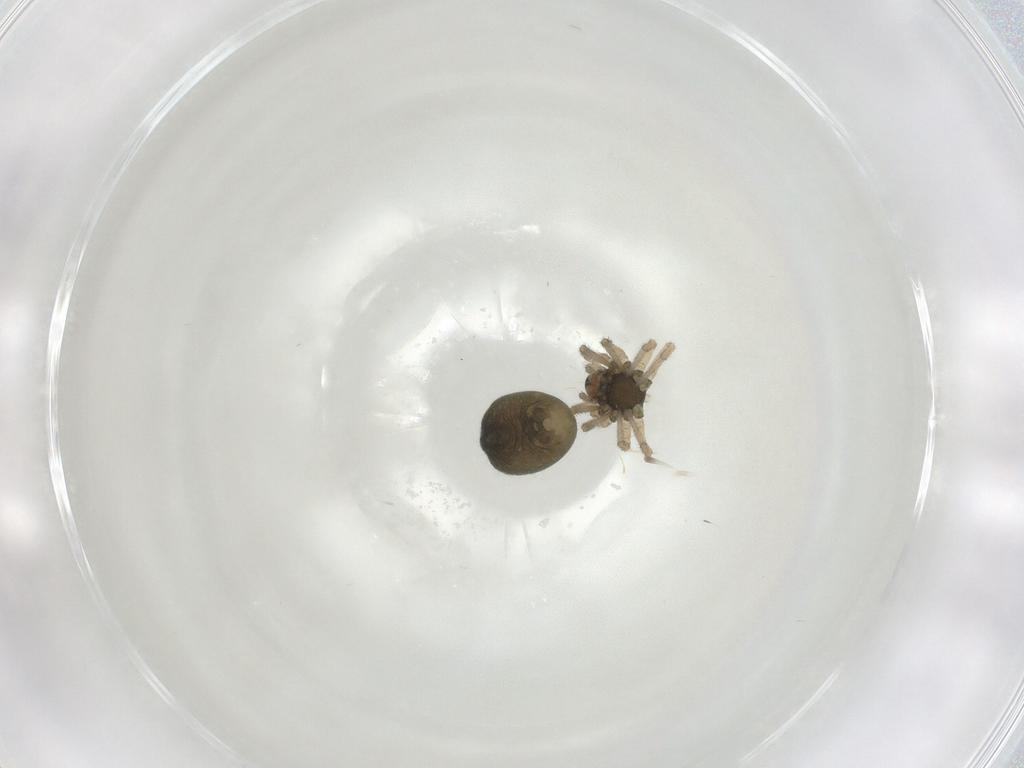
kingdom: Animalia
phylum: Arthropoda
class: Arachnida
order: Araneae
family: Linyphiidae
